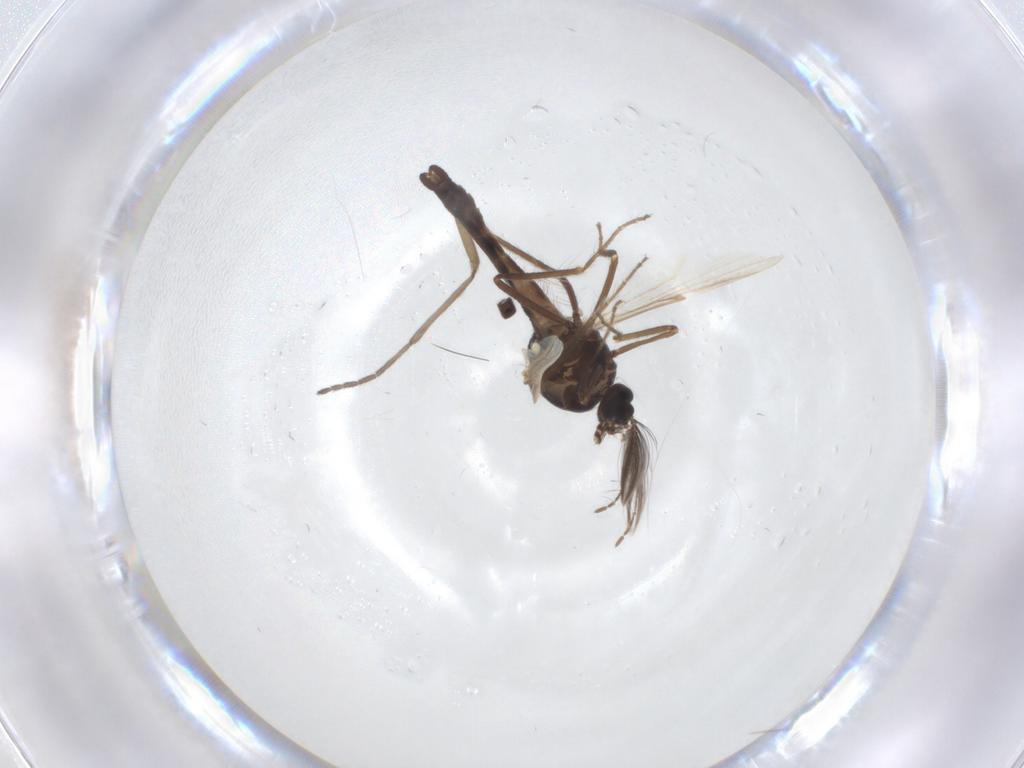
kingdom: Animalia
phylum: Arthropoda
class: Insecta
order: Diptera
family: Ceratopogonidae
